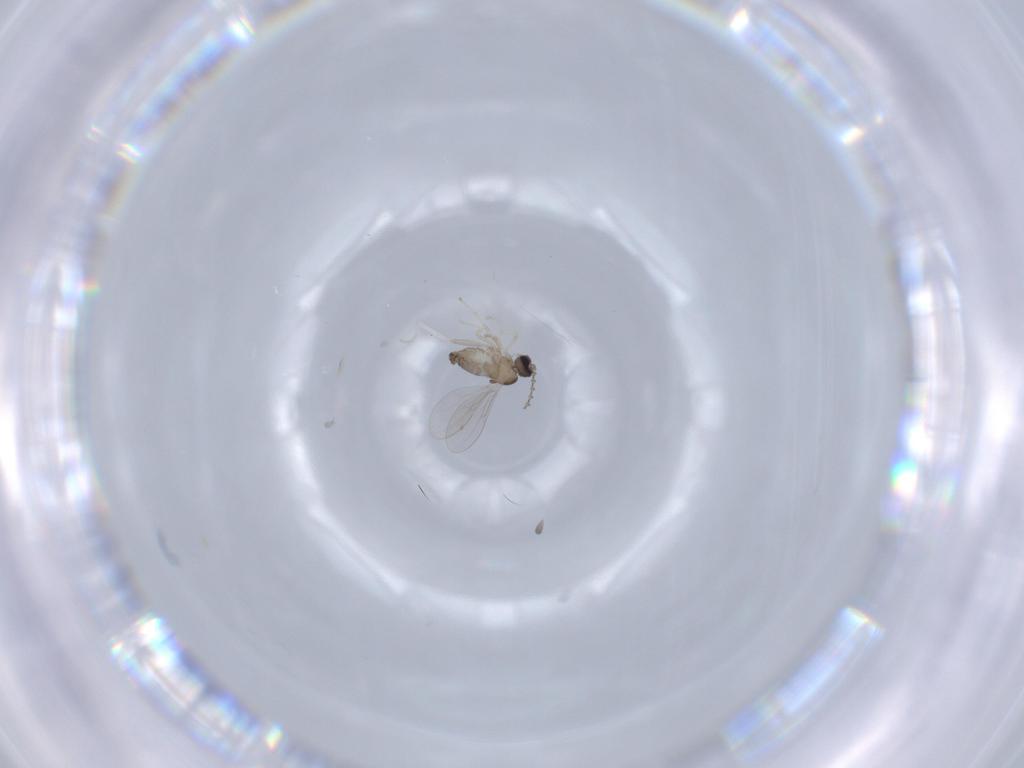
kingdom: Animalia
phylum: Arthropoda
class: Insecta
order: Diptera
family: Cecidomyiidae
